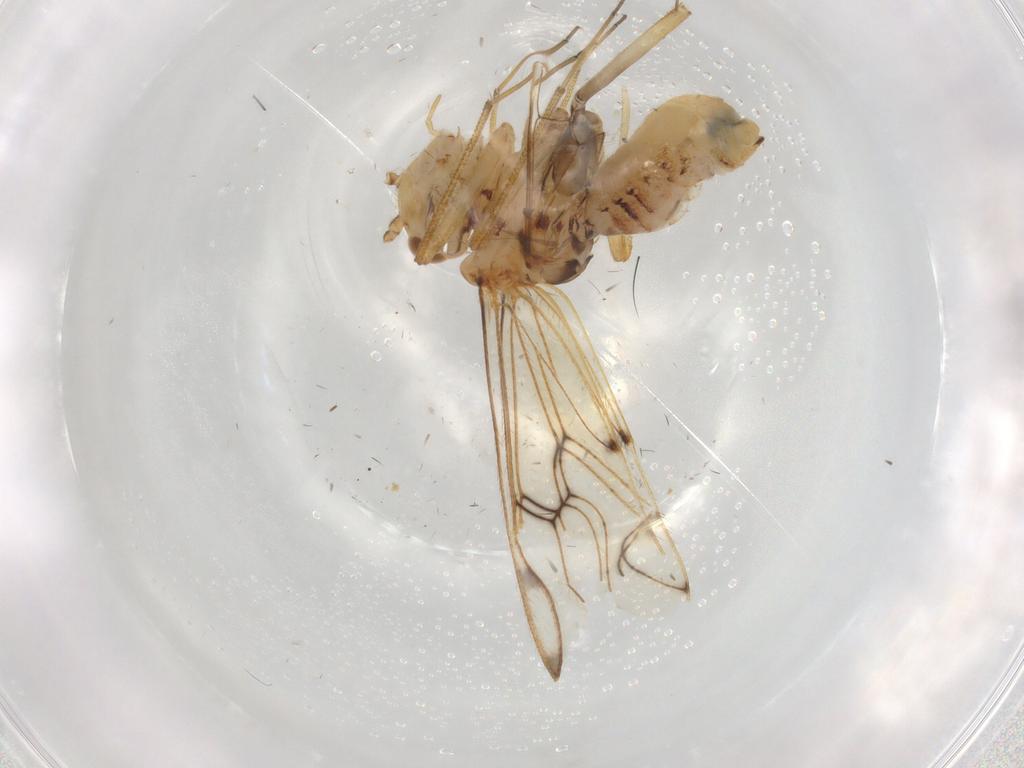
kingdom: Animalia
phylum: Arthropoda
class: Insecta
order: Psocodea
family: Epipsocidae
